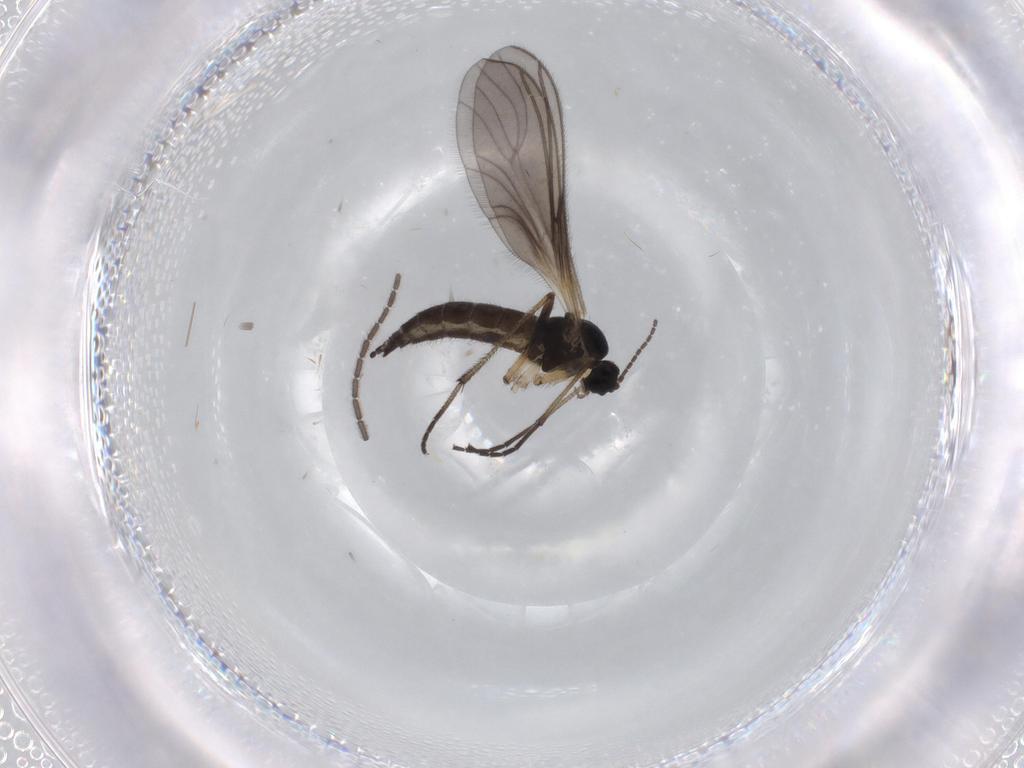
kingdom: Animalia
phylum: Arthropoda
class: Insecta
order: Diptera
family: Sciaridae
